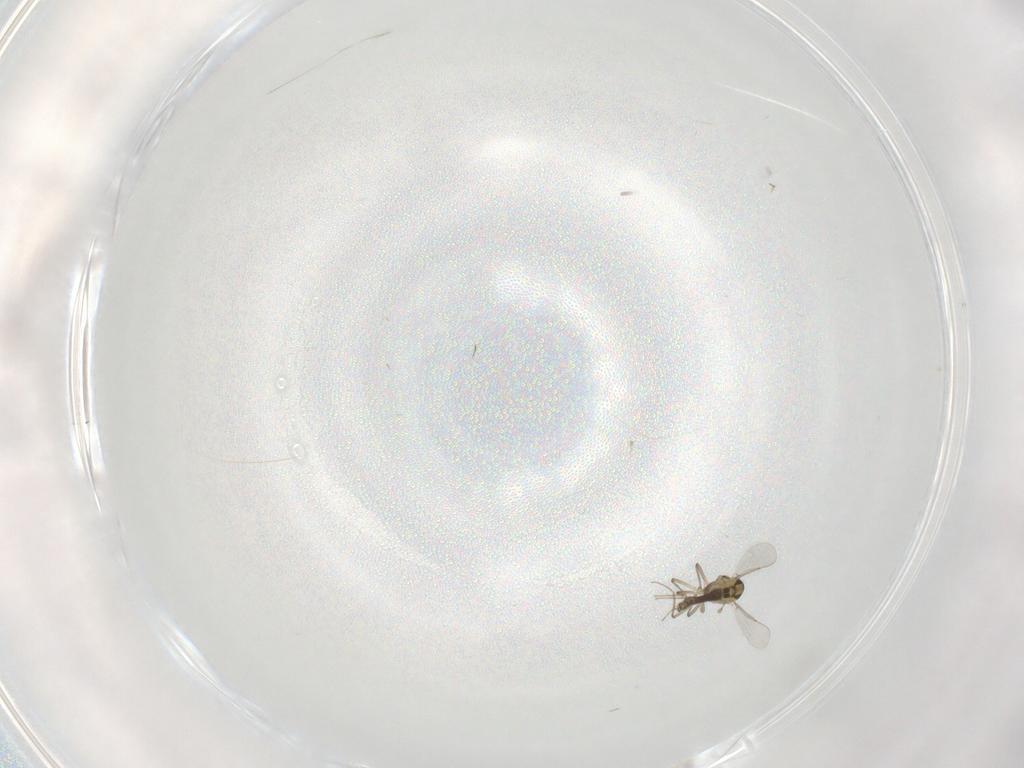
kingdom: Animalia
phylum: Arthropoda
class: Insecta
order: Diptera
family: Chironomidae
